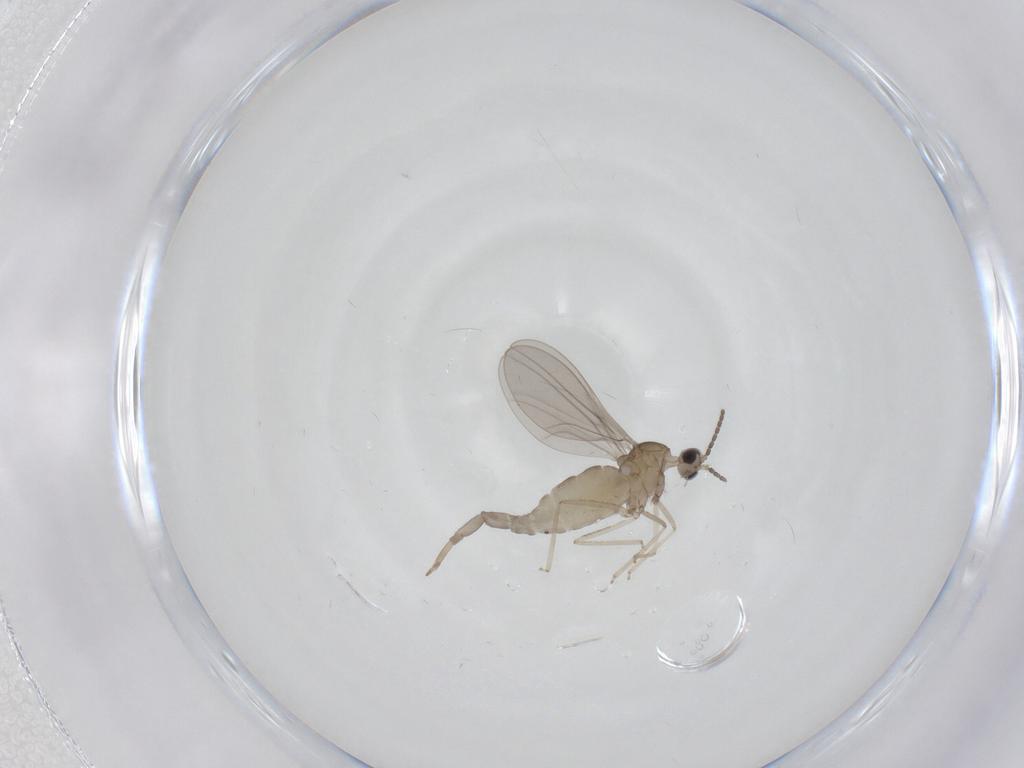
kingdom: Animalia
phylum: Arthropoda
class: Insecta
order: Diptera
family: Cecidomyiidae
